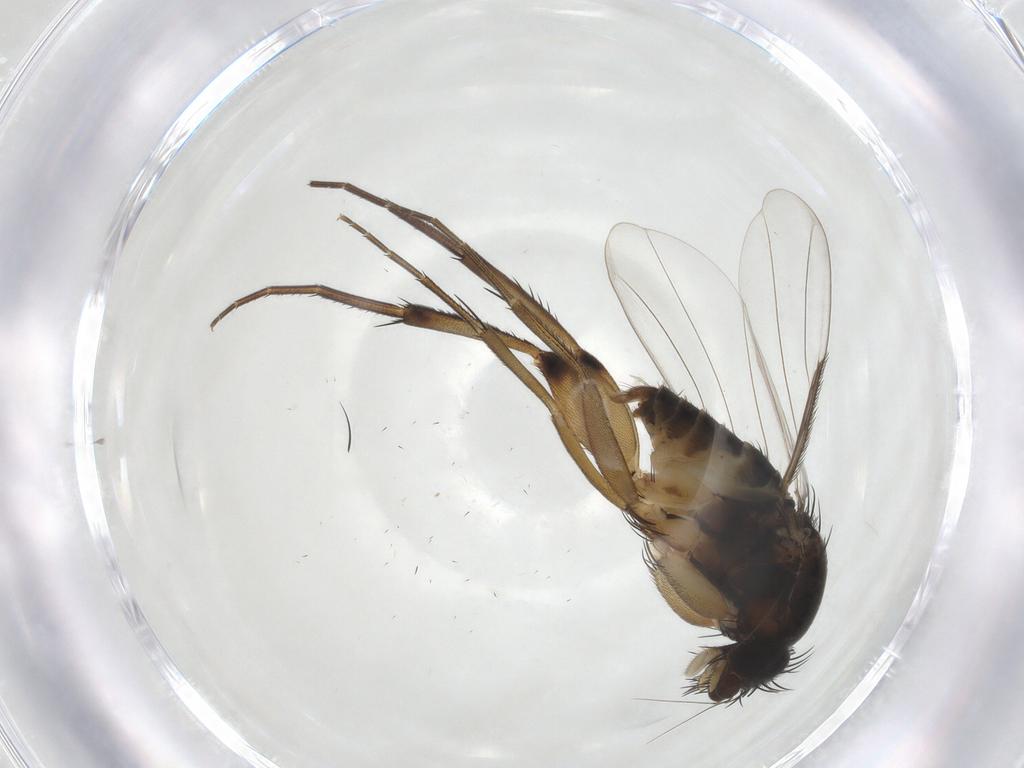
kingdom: Animalia
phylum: Arthropoda
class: Insecta
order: Diptera
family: Phoridae
